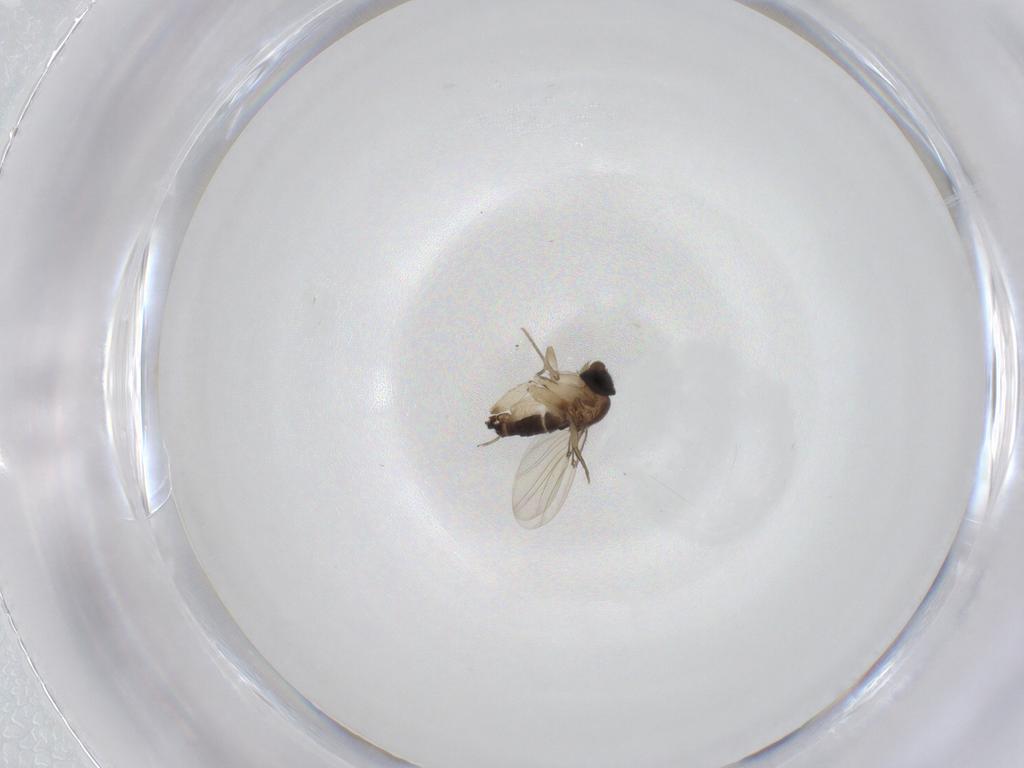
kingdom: Animalia
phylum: Arthropoda
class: Insecta
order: Diptera
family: Phoridae
